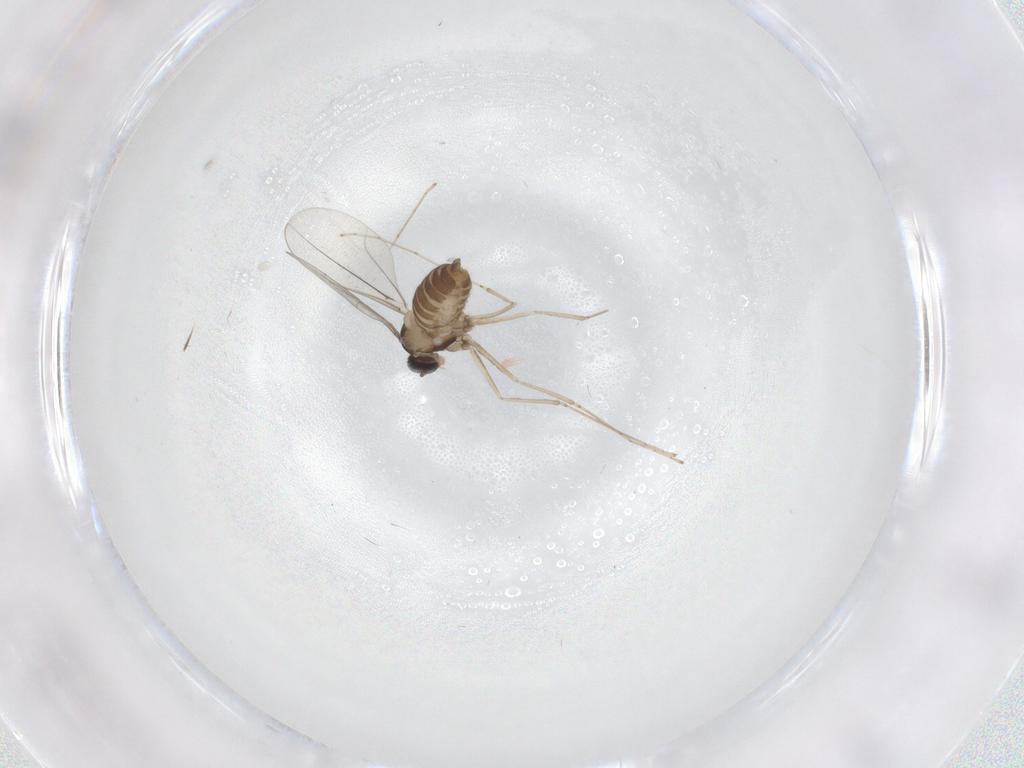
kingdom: Animalia
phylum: Arthropoda
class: Insecta
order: Diptera
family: Cecidomyiidae
